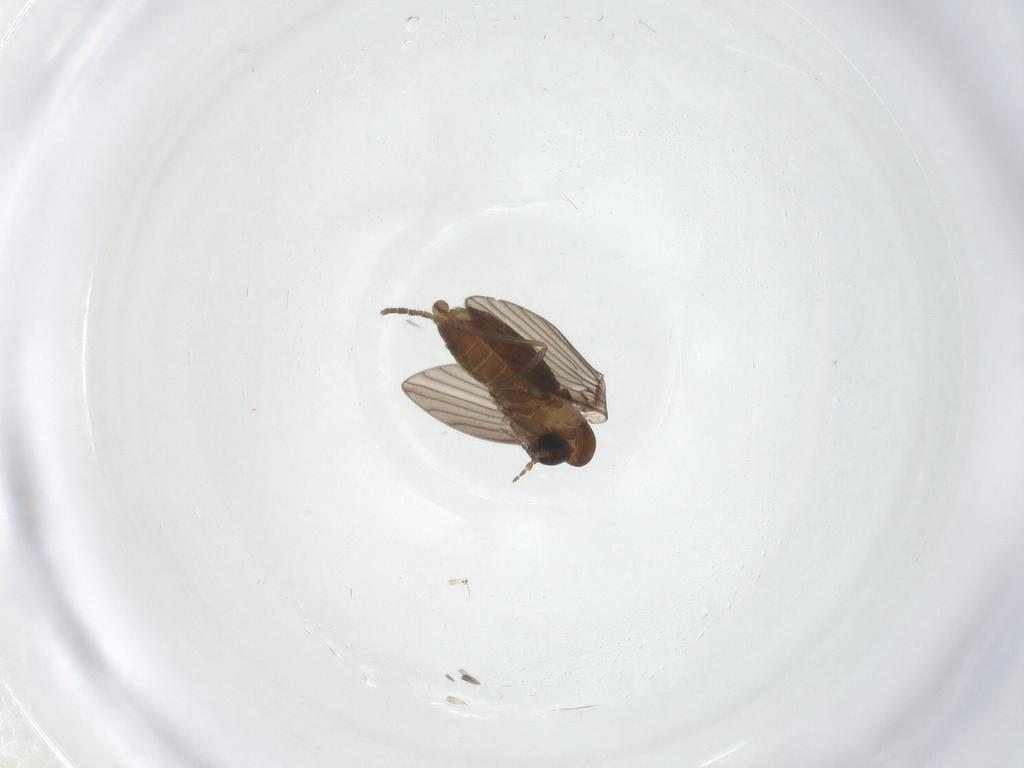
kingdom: Animalia
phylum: Arthropoda
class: Insecta
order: Diptera
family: Psychodidae
